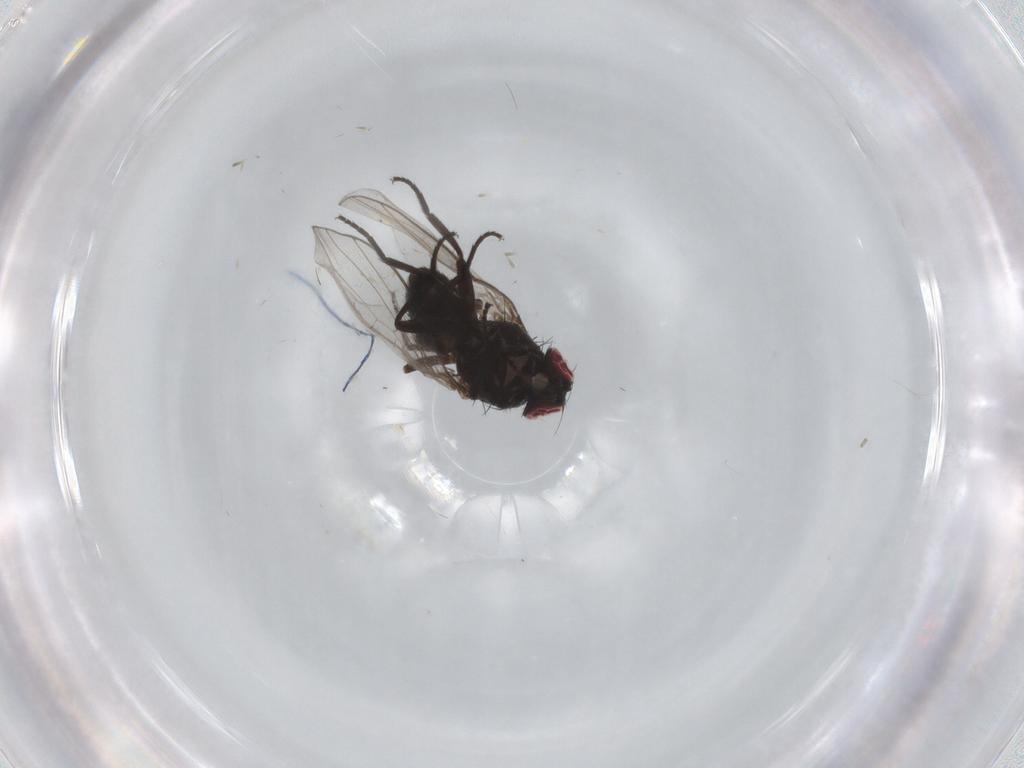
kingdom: Animalia
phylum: Arthropoda
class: Insecta
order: Diptera
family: Agromyzidae
